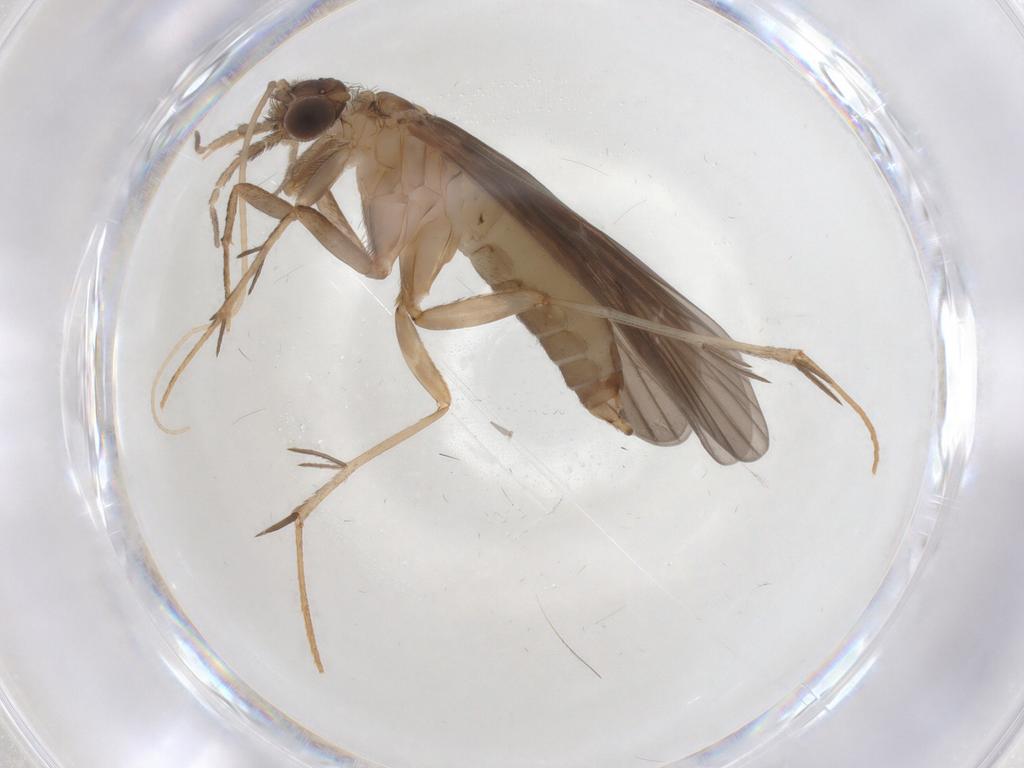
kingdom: Animalia
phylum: Arthropoda
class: Insecta
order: Trichoptera
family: Philopotamidae
